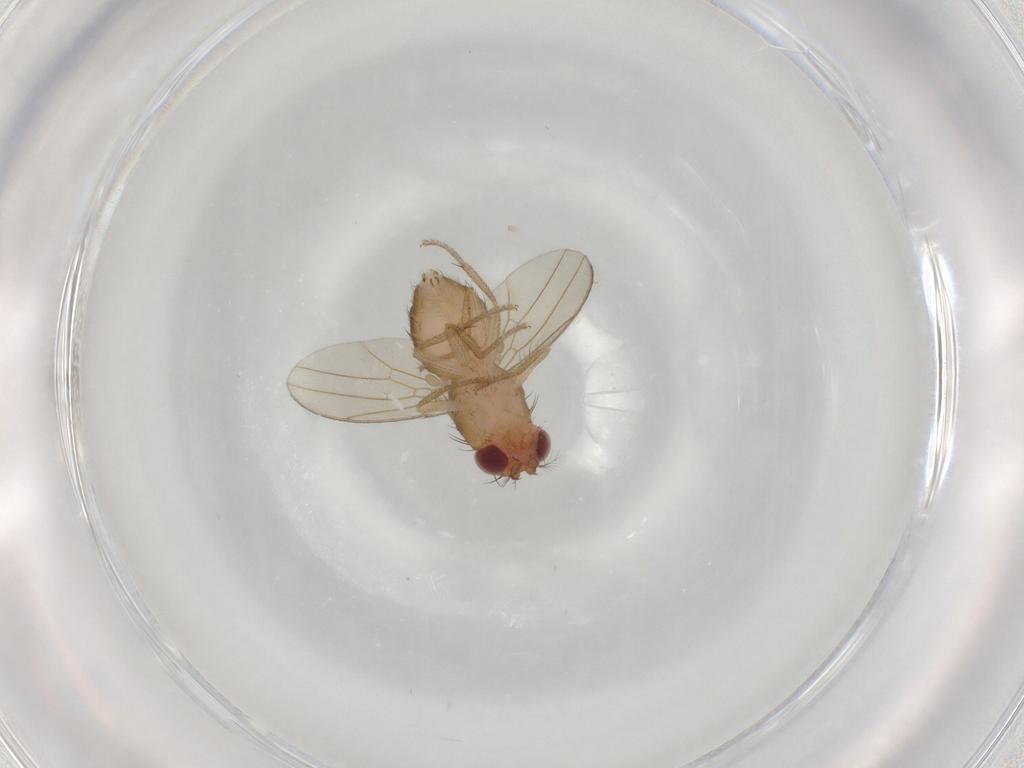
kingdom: Animalia
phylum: Arthropoda
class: Insecta
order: Diptera
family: Drosophilidae
